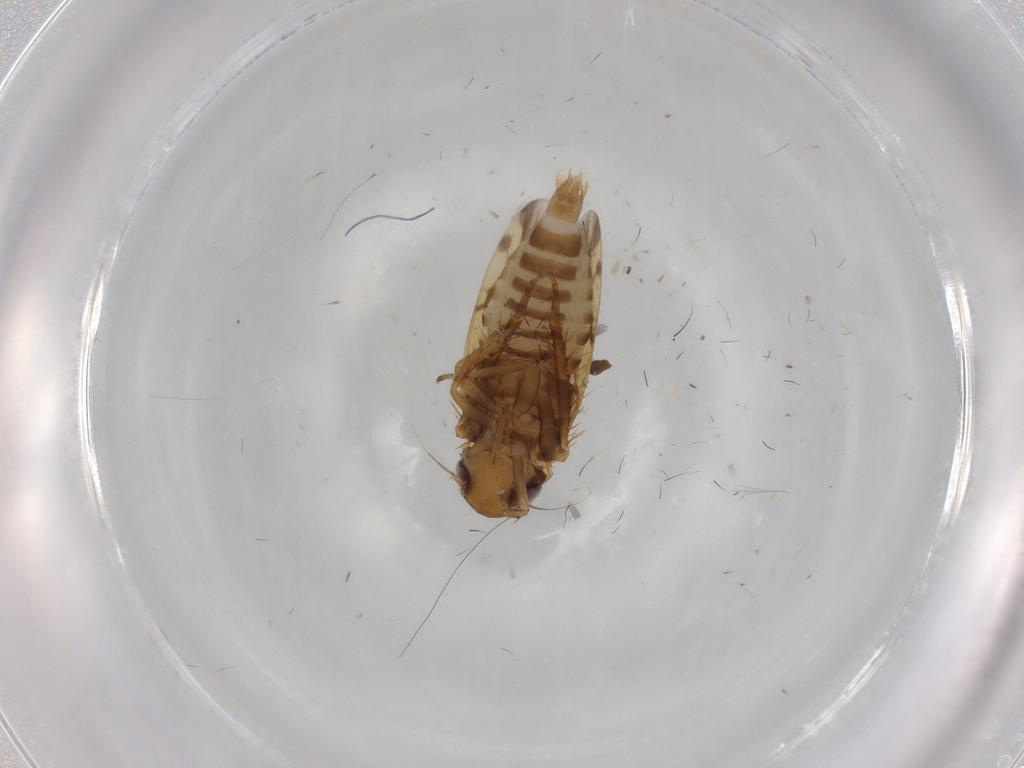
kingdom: Animalia
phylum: Arthropoda
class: Insecta
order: Hemiptera
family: Cicadellidae
